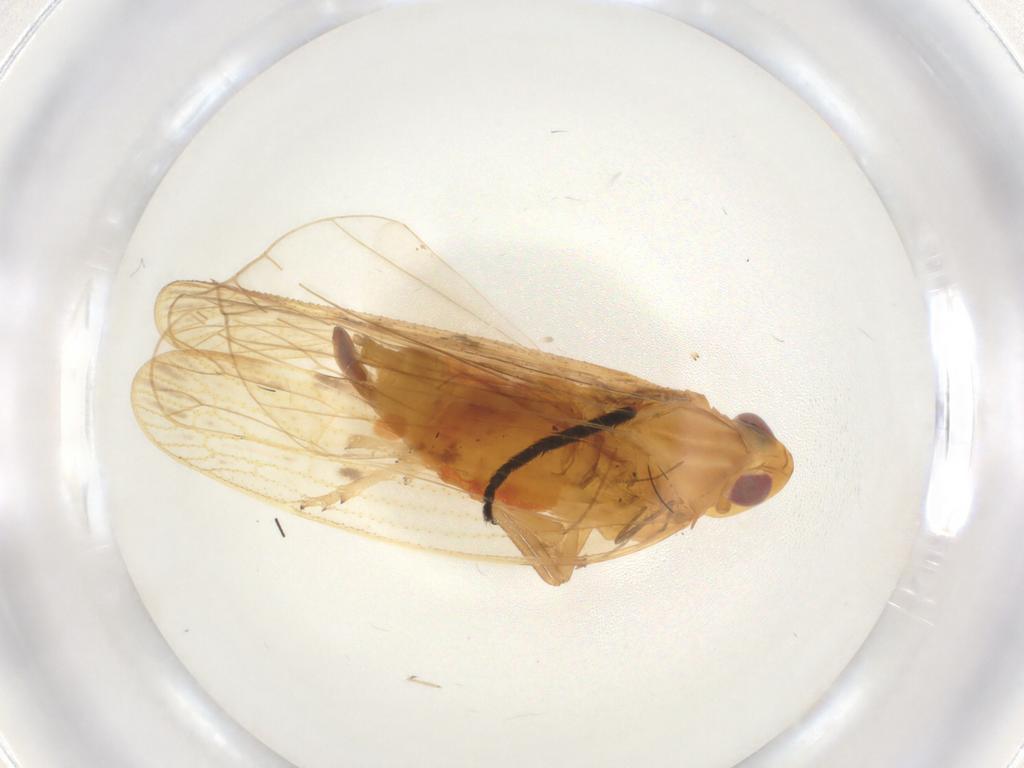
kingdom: Animalia
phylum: Arthropoda
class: Insecta
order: Hemiptera
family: Cixiidae
